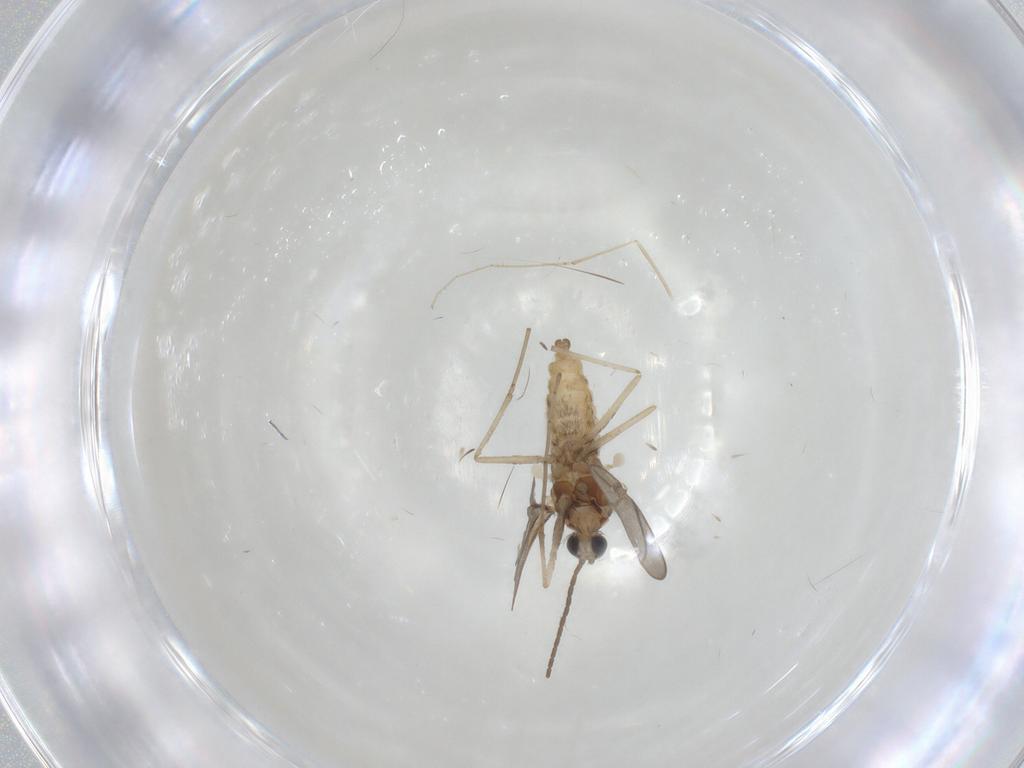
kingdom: Animalia
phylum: Arthropoda
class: Insecta
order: Diptera
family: Cecidomyiidae
